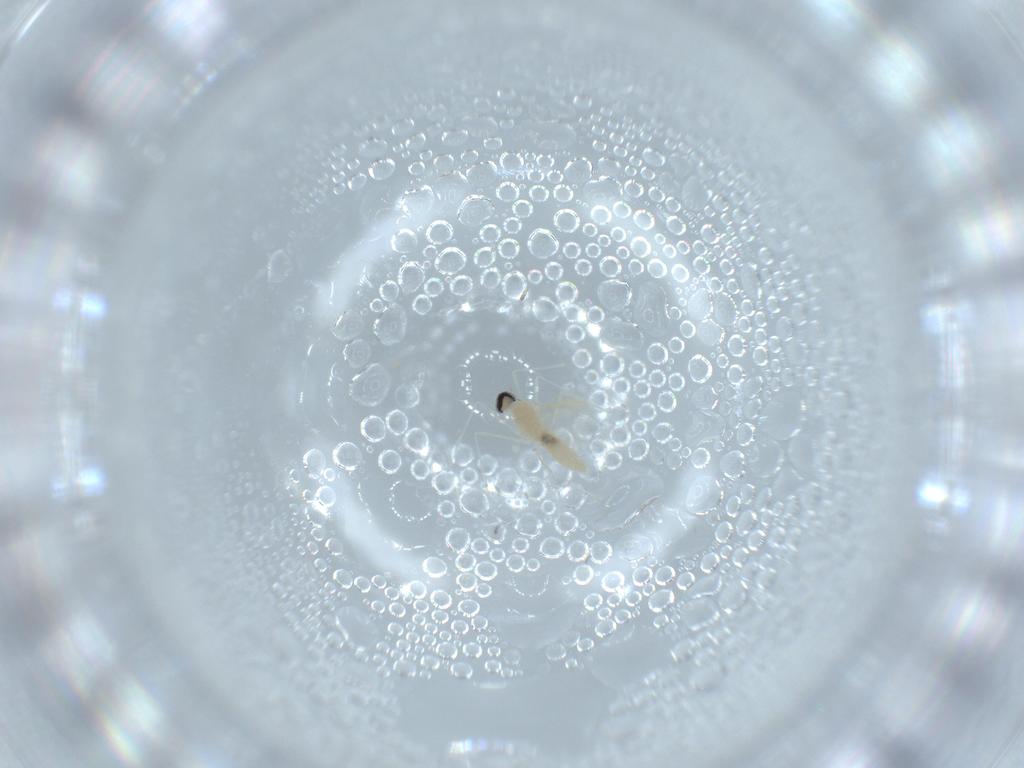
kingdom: Animalia
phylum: Arthropoda
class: Insecta
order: Diptera
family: Cecidomyiidae
